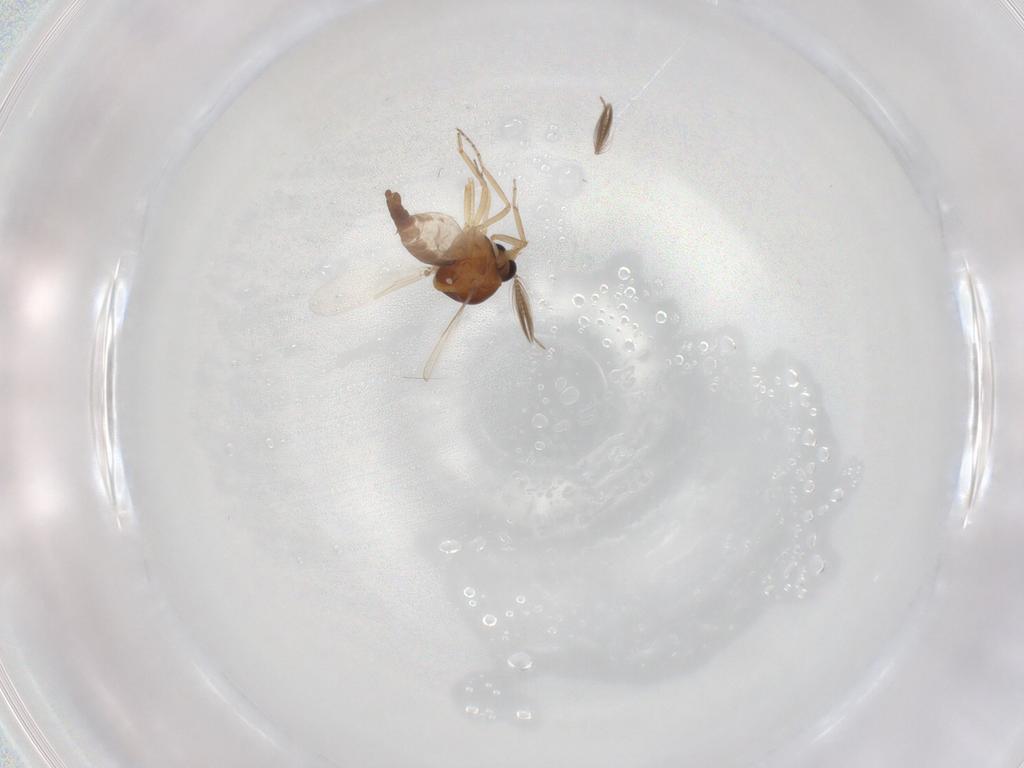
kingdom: Animalia
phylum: Arthropoda
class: Insecta
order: Diptera
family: Ceratopogonidae
